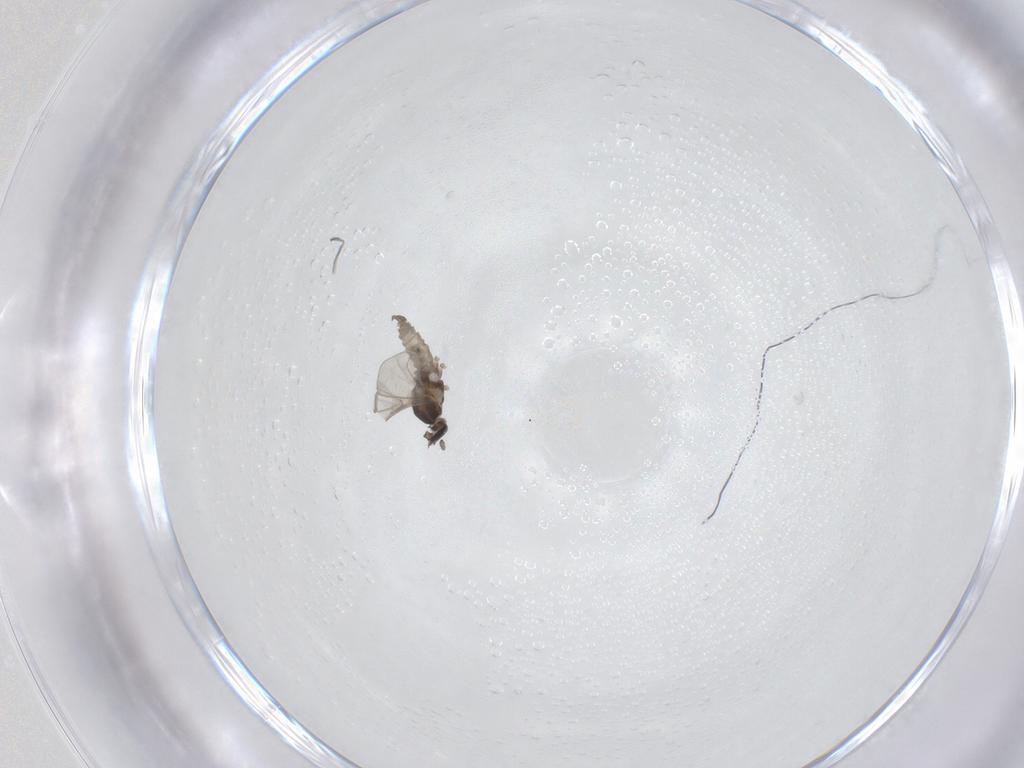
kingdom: Animalia
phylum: Arthropoda
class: Insecta
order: Diptera
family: Cecidomyiidae
